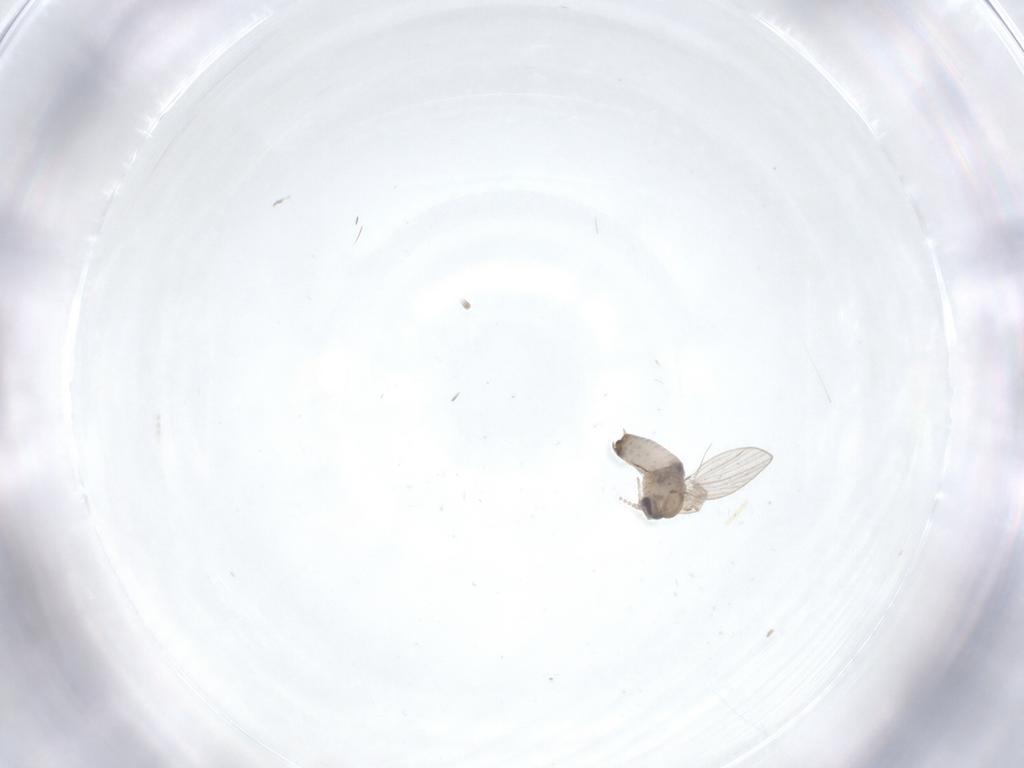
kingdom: Animalia
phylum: Arthropoda
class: Insecta
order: Diptera
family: Psychodidae
